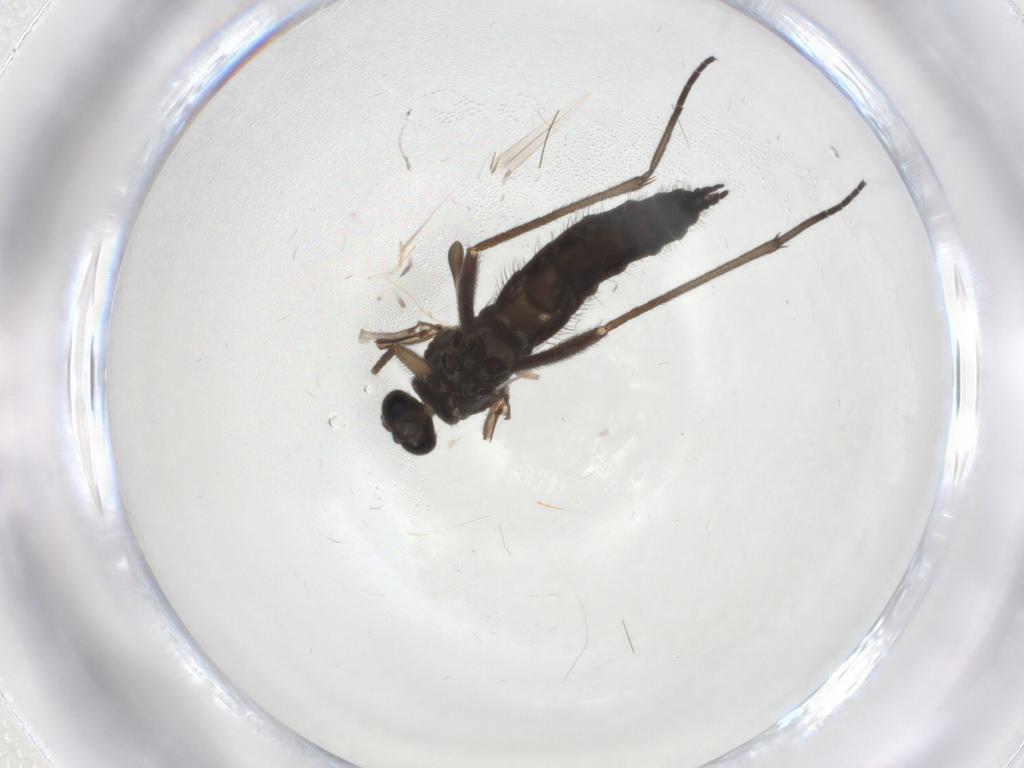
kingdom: Animalia
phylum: Arthropoda
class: Insecta
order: Diptera
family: Sciaridae
